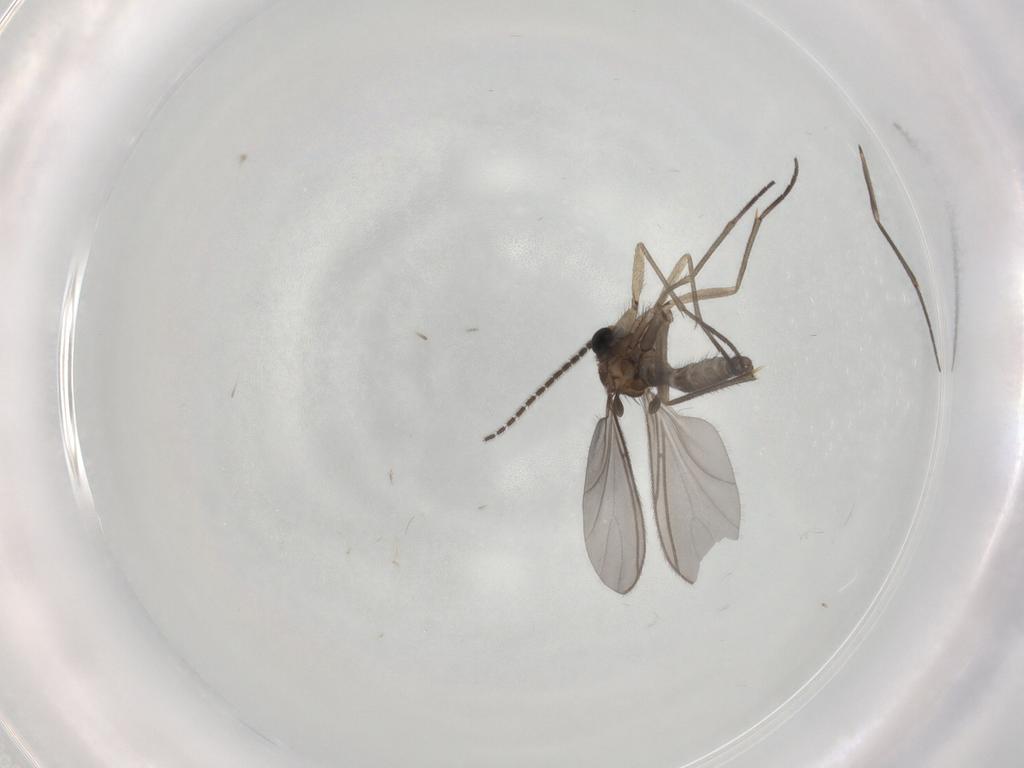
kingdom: Animalia
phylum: Arthropoda
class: Insecta
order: Diptera
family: Sciaridae
